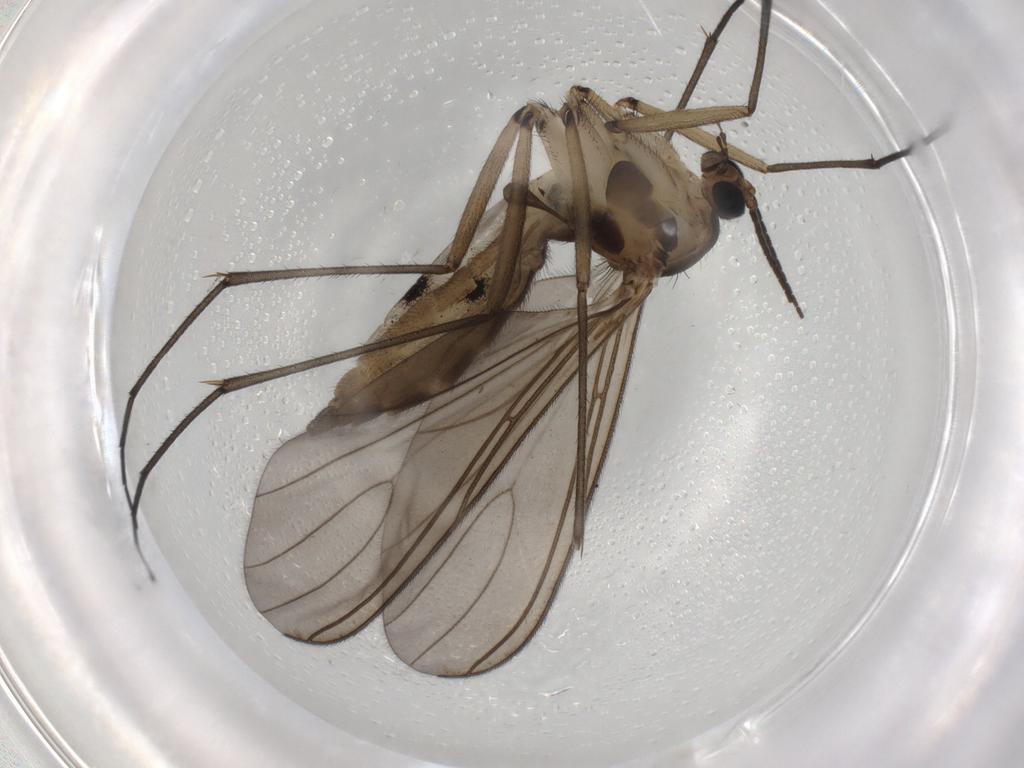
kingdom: Animalia
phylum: Arthropoda
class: Insecta
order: Diptera
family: Sciaridae
